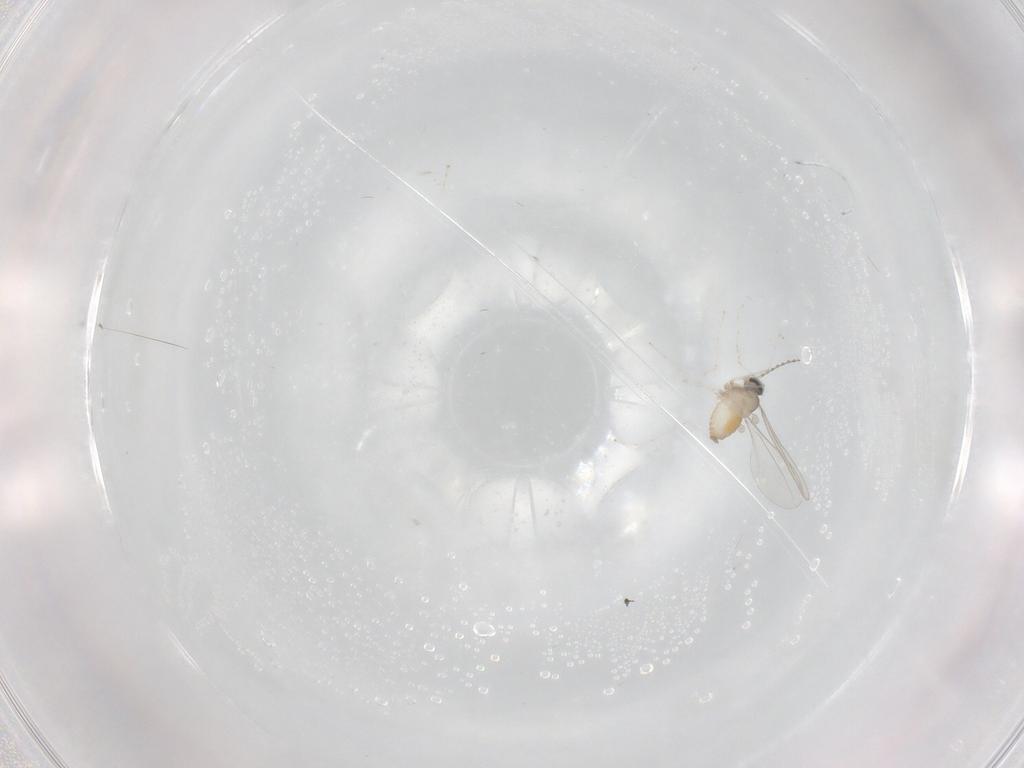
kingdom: Animalia
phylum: Arthropoda
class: Insecta
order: Diptera
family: Cecidomyiidae
